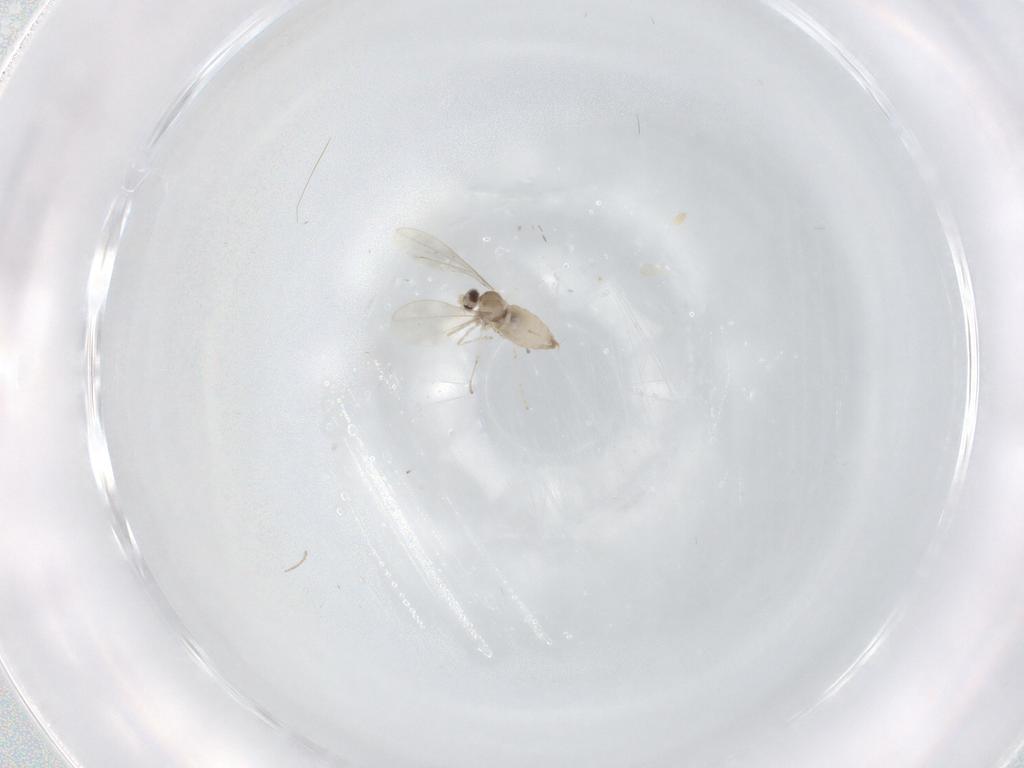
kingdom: Animalia
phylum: Arthropoda
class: Insecta
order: Diptera
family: Cecidomyiidae
